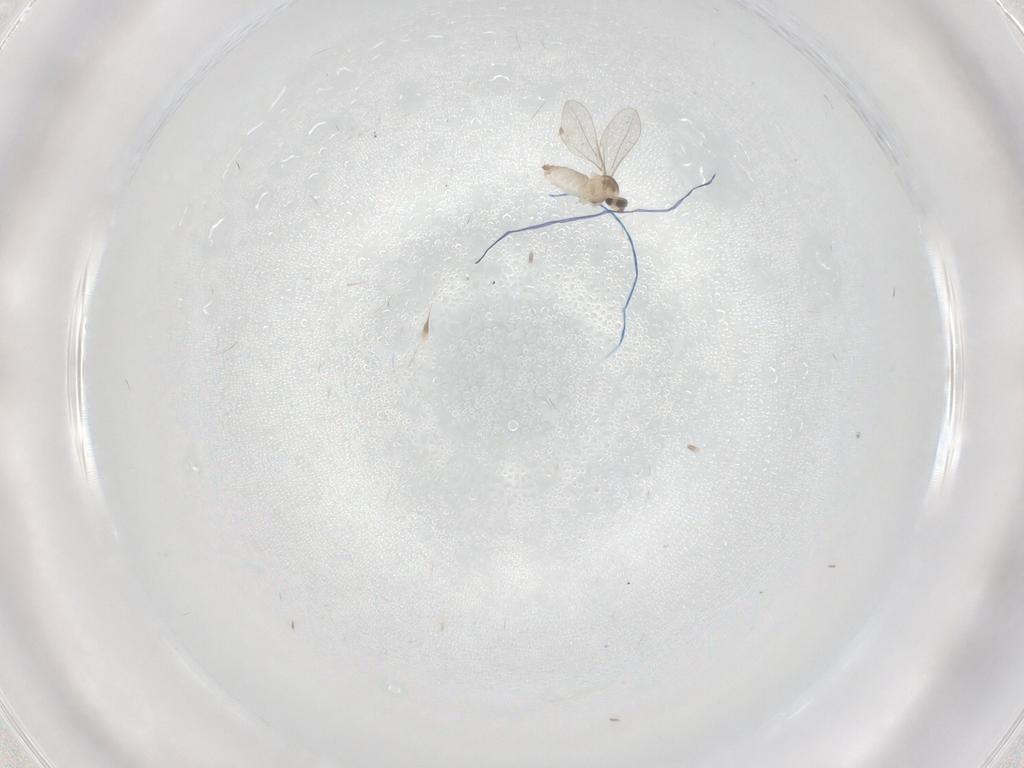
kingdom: Animalia
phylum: Arthropoda
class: Insecta
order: Diptera
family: Cecidomyiidae
